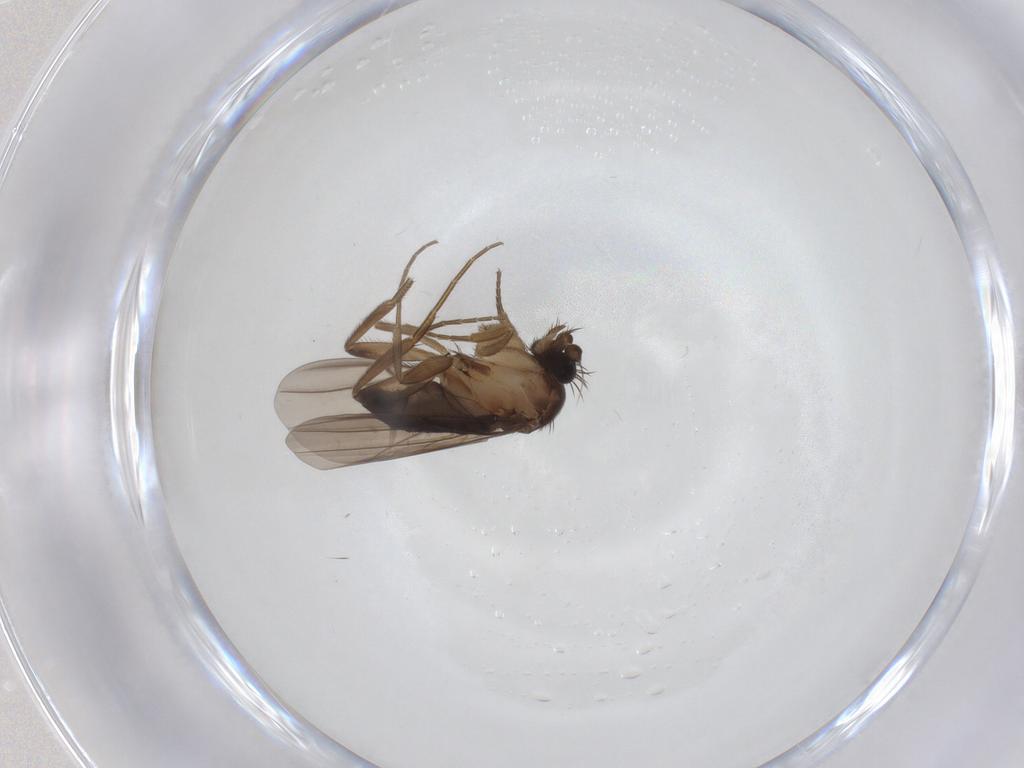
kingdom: Animalia
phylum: Arthropoda
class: Insecta
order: Diptera
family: Phoridae
